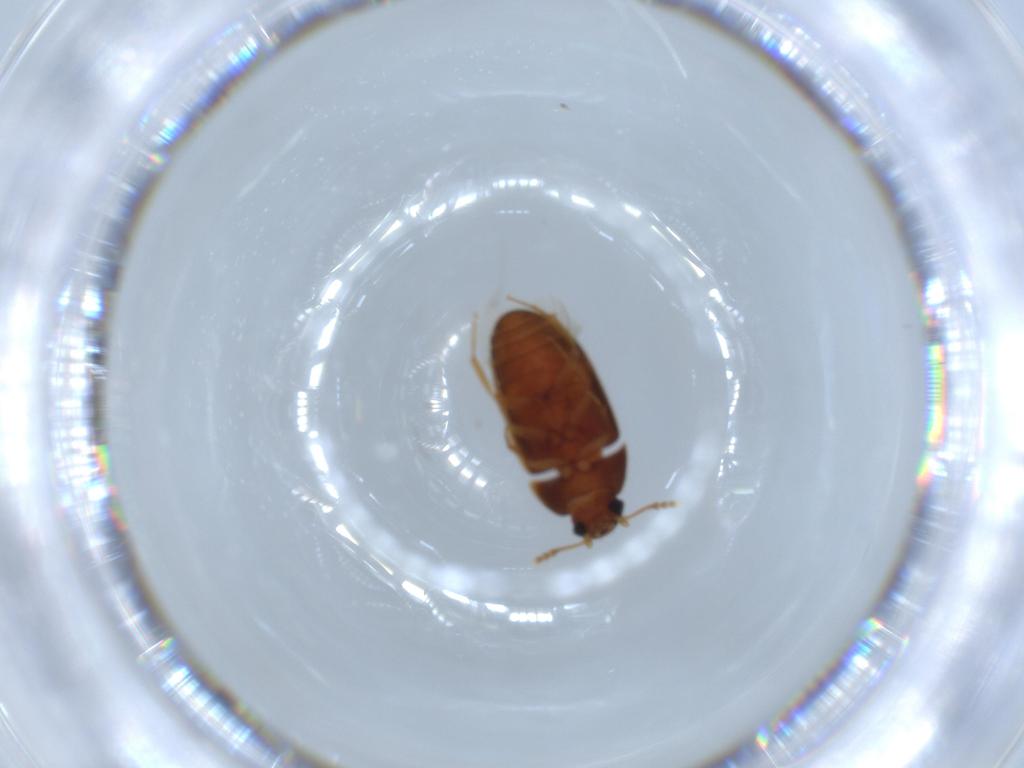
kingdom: Animalia
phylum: Arthropoda
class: Insecta
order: Coleoptera
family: Mycetophagidae
